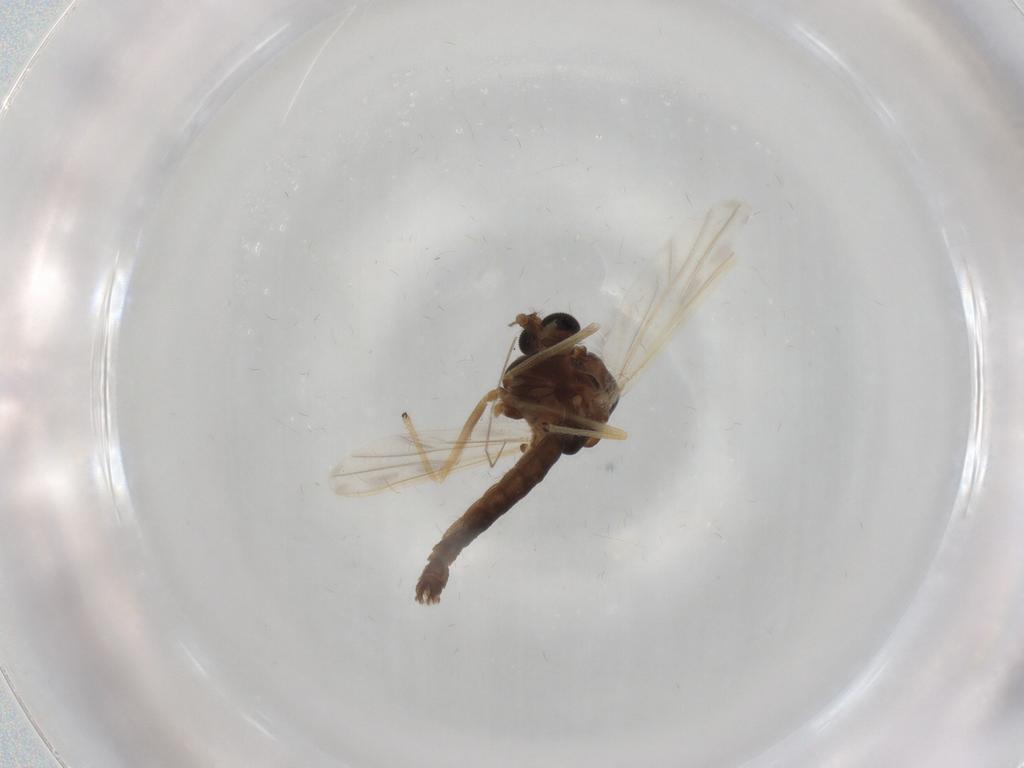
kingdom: Animalia
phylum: Arthropoda
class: Insecta
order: Diptera
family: Chironomidae
